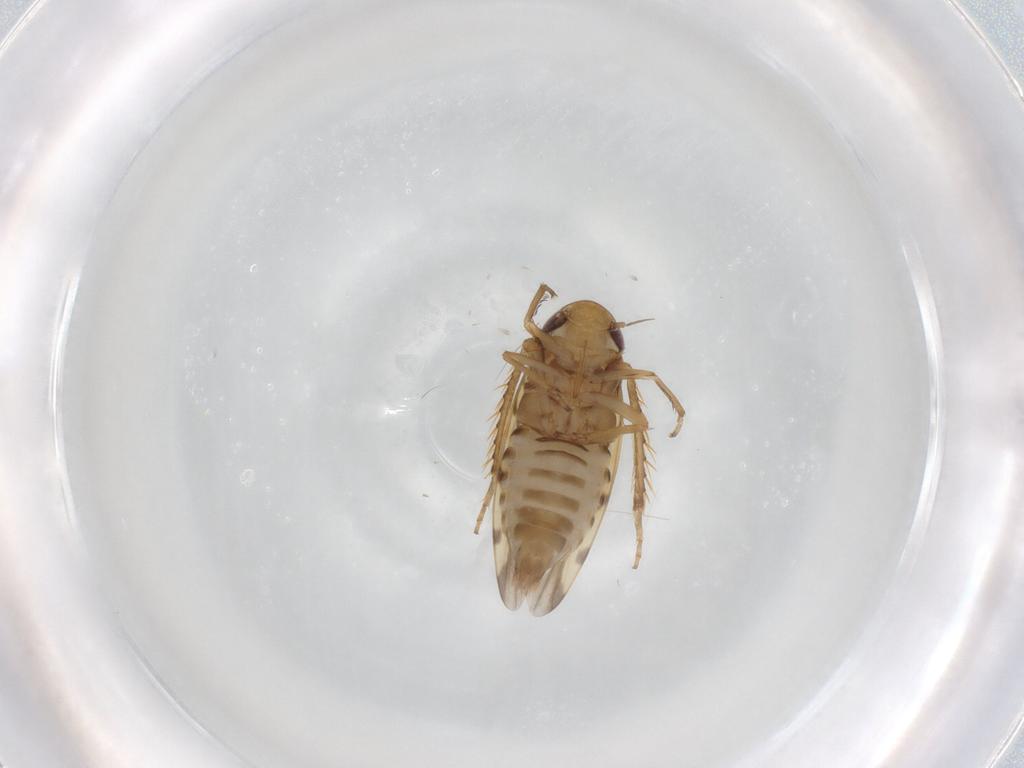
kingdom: Animalia
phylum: Arthropoda
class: Insecta
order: Hemiptera
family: Cicadellidae
